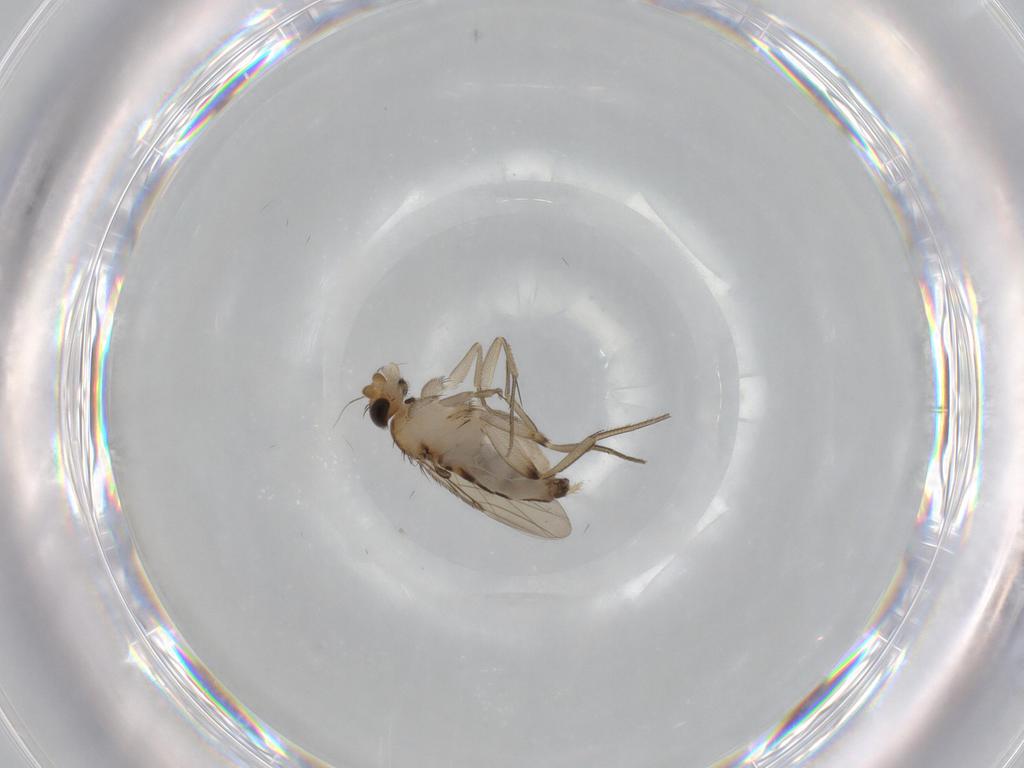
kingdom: Animalia
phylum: Arthropoda
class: Insecta
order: Diptera
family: Phoridae
